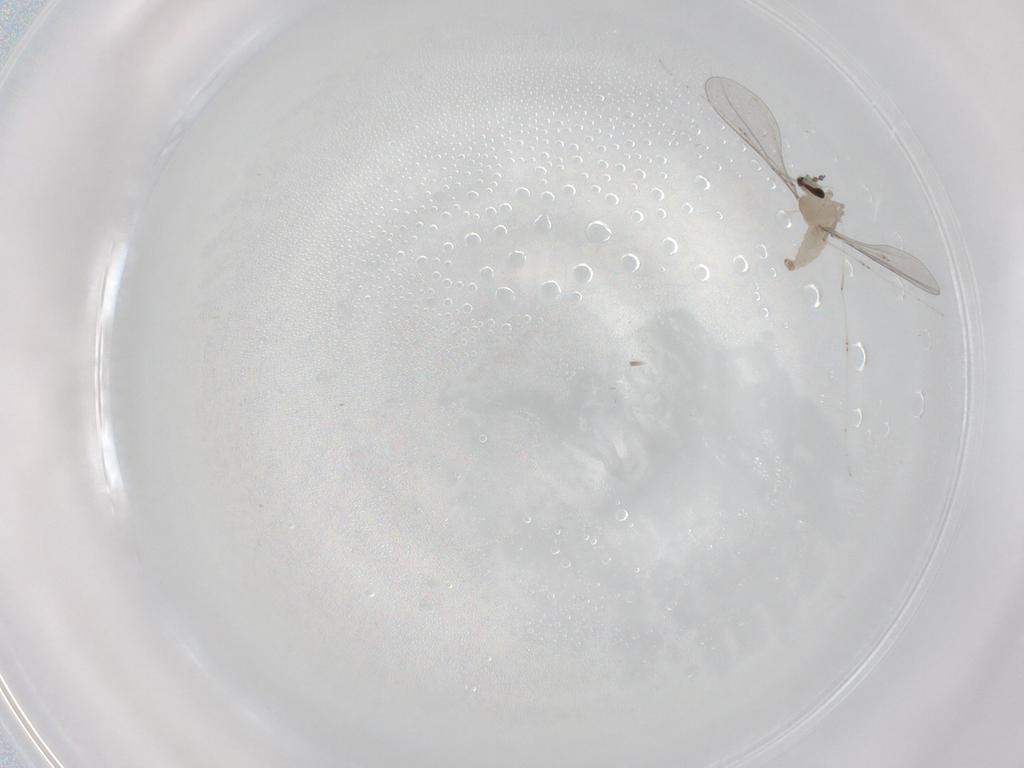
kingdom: Animalia
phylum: Arthropoda
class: Insecta
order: Diptera
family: Cecidomyiidae
